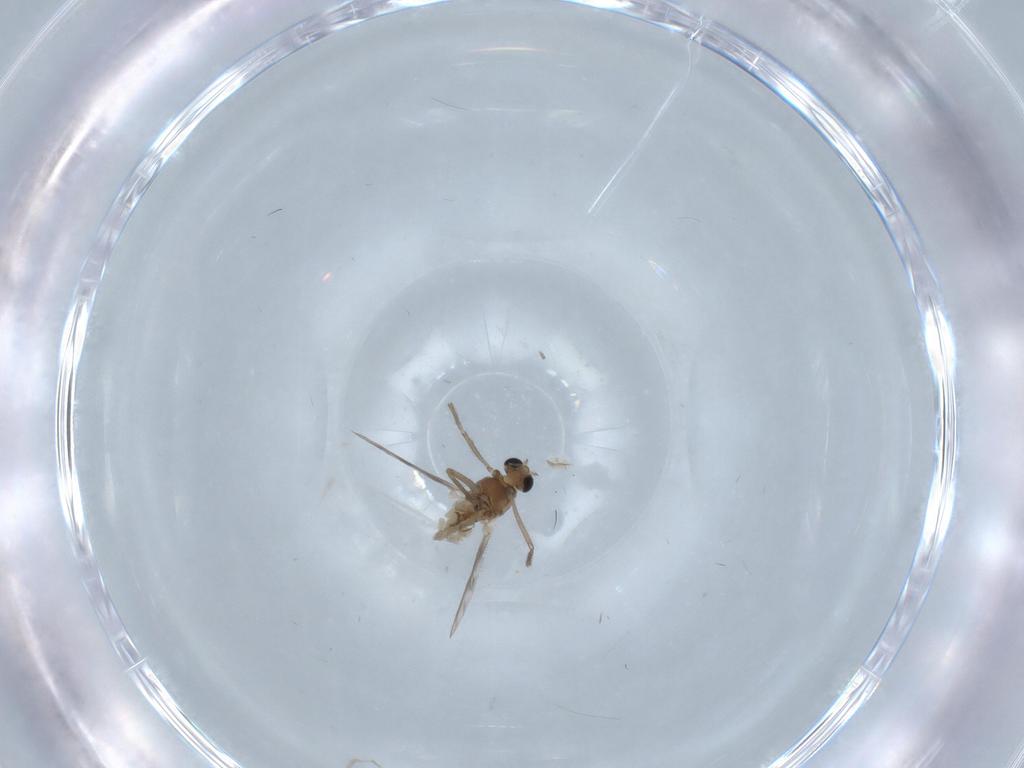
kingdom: Animalia
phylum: Arthropoda
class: Insecta
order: Diptera
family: Chironomidae
